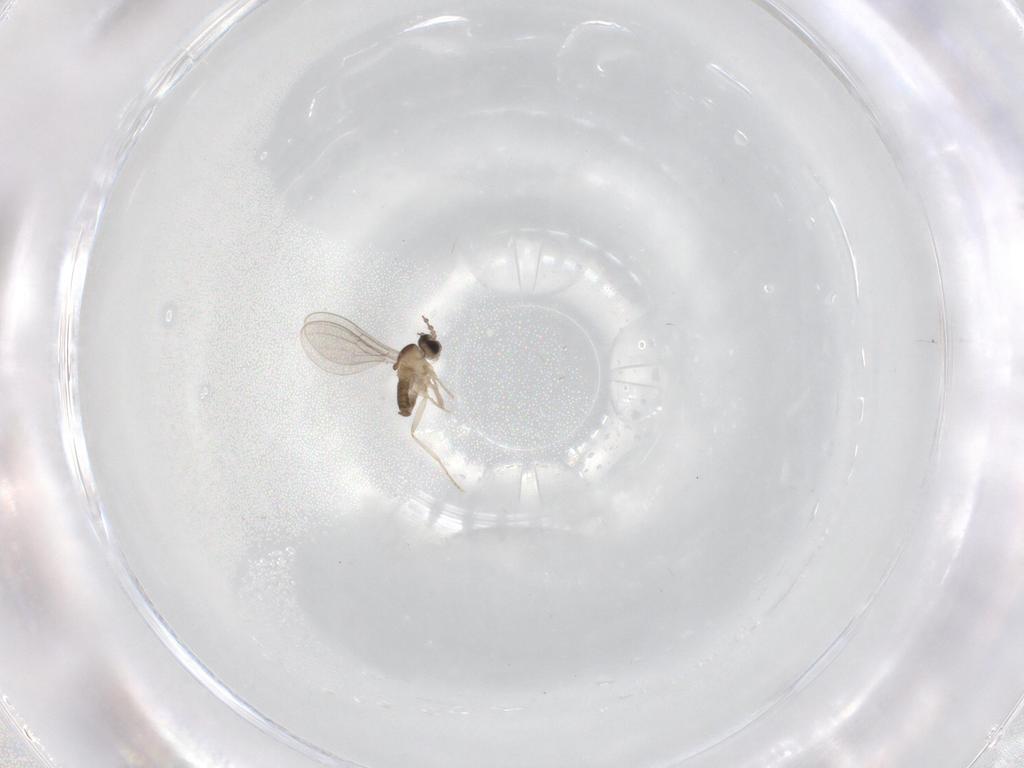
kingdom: Animalia
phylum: Arthropoda
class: Insecta
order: Diptera
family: Cecidomyiidae
